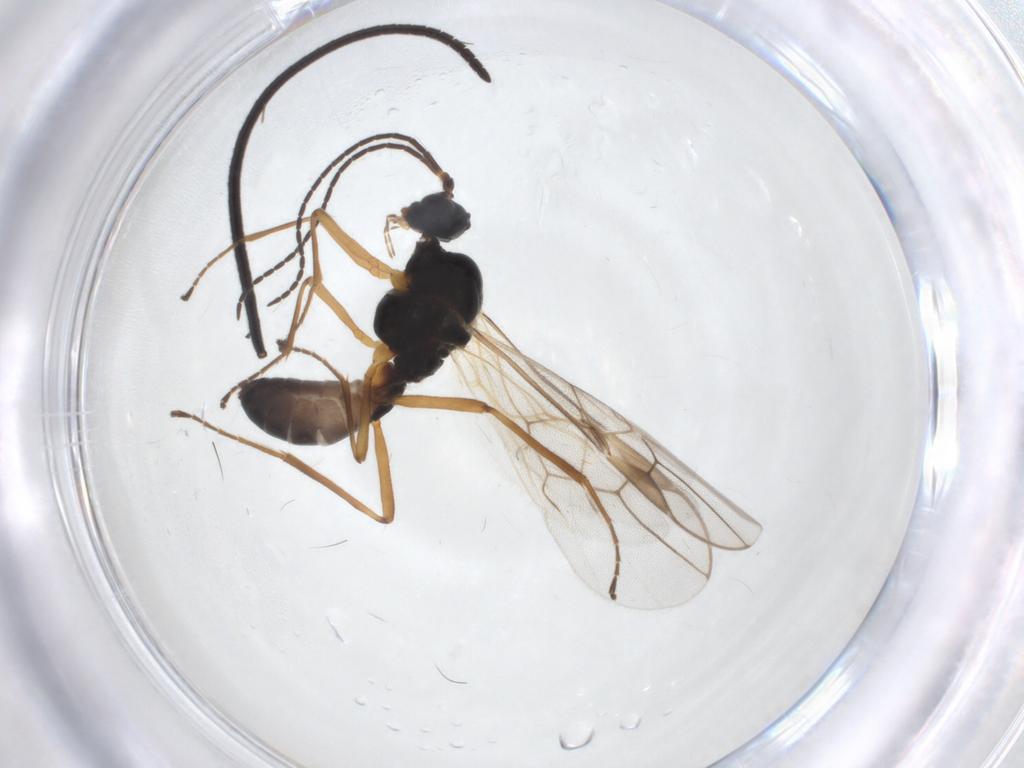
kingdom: Animalia
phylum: Arthropoda
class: Insecta
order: Hymenoptera
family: Braconidae
